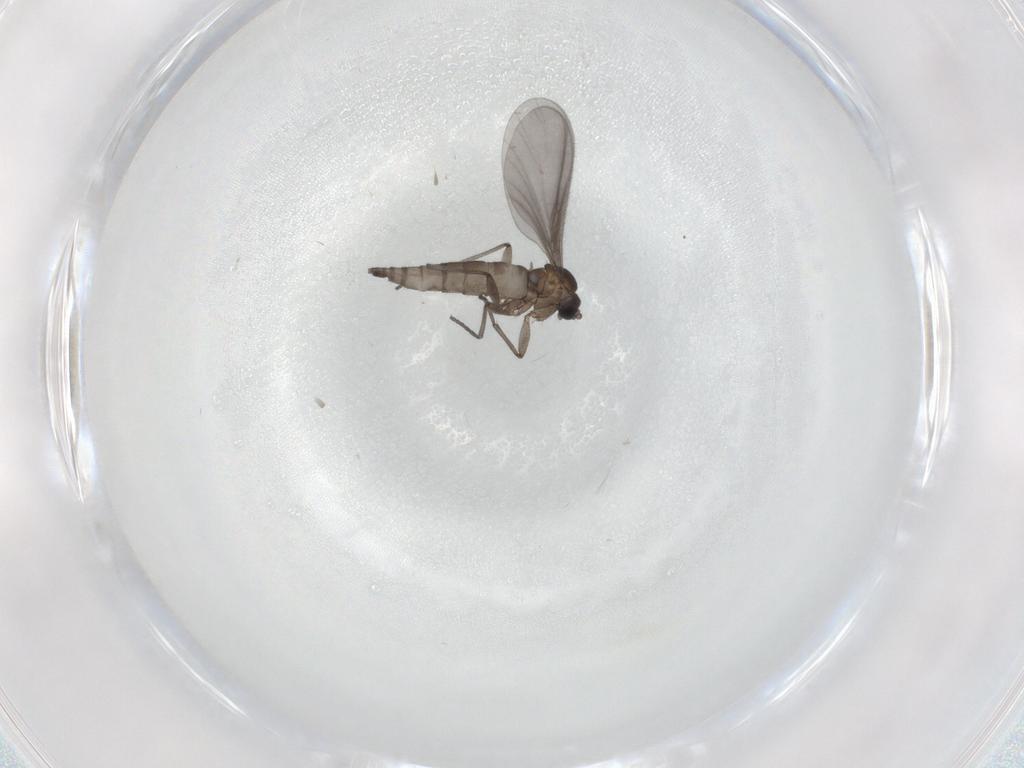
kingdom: Animalia
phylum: Arthropoda
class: Insecta
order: Diptera
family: Sciaridae
